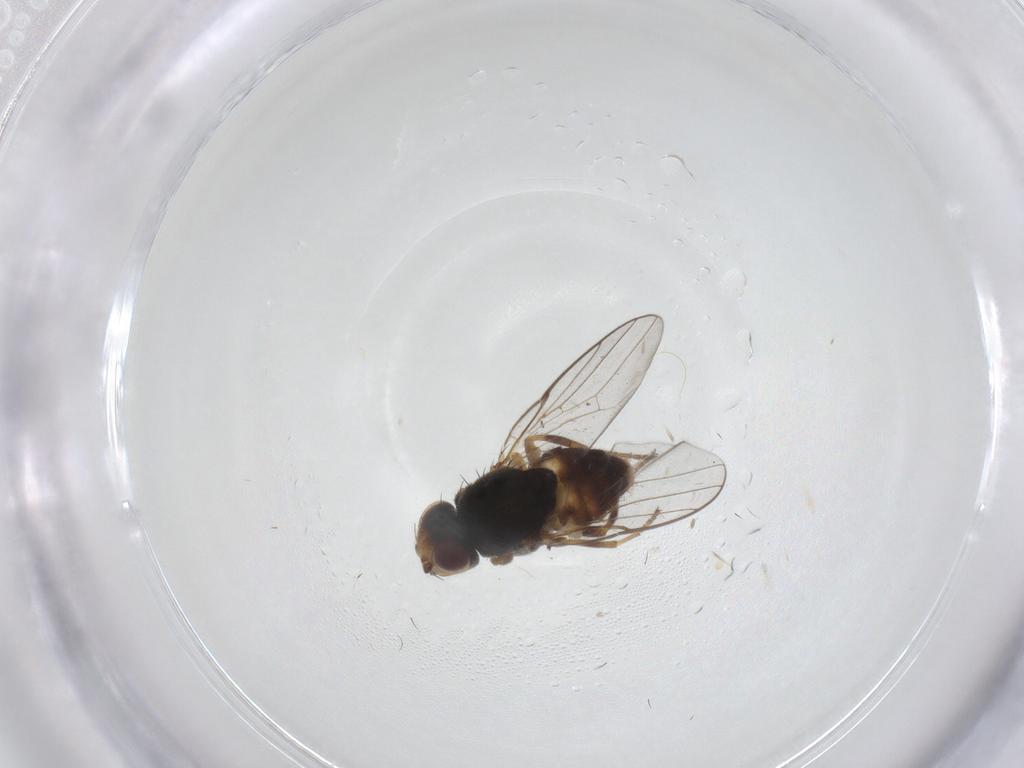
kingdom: Animalia
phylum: Arthropoda
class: Insecta
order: Diptera
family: Chloropidae
